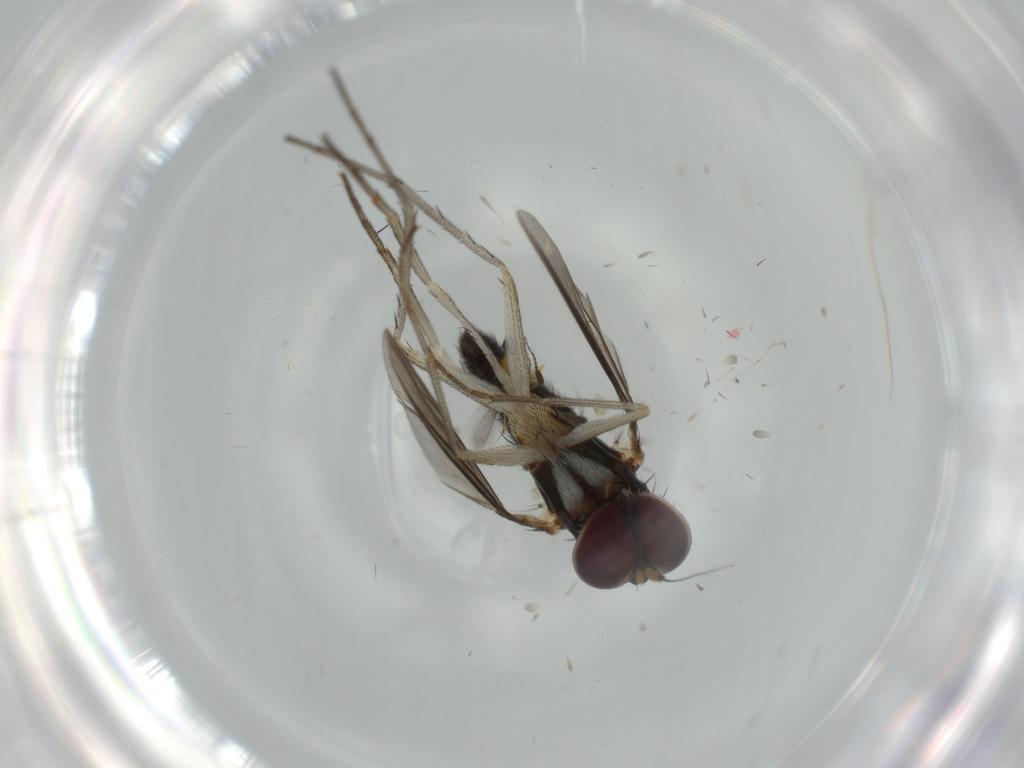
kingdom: Animalia
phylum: Arthropoda
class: Insecta
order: Diptera
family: Dolichopodidae
